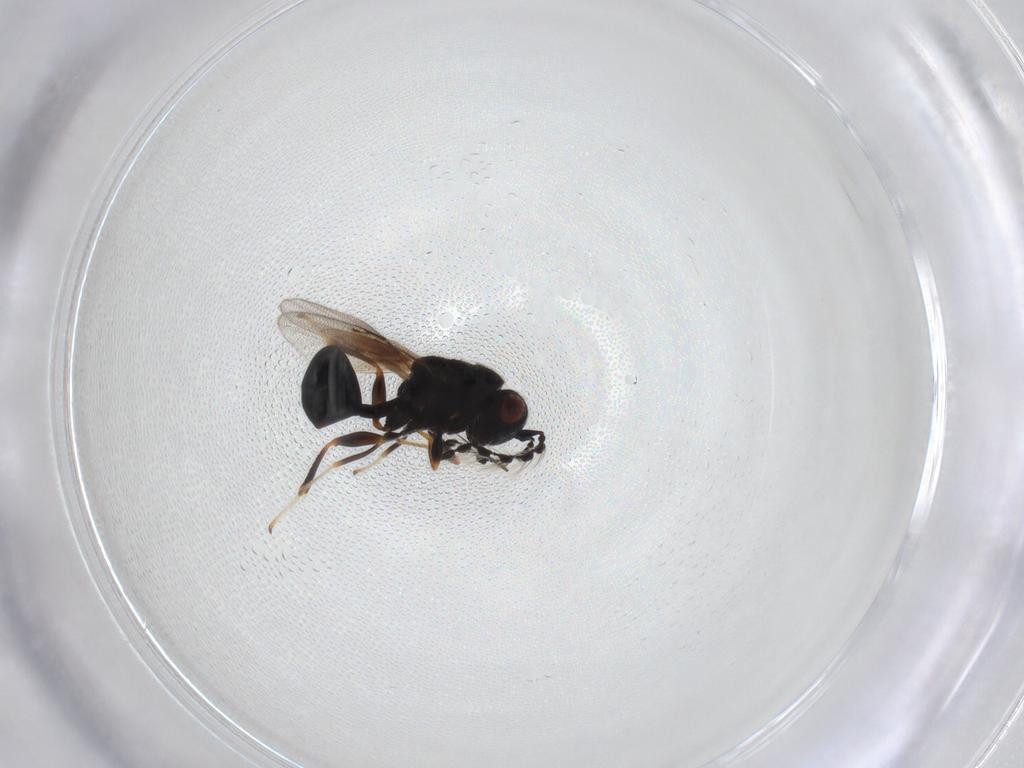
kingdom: Animalia
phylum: Arthropoda
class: Insecta
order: Hymenoptera
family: Eurytomidae
